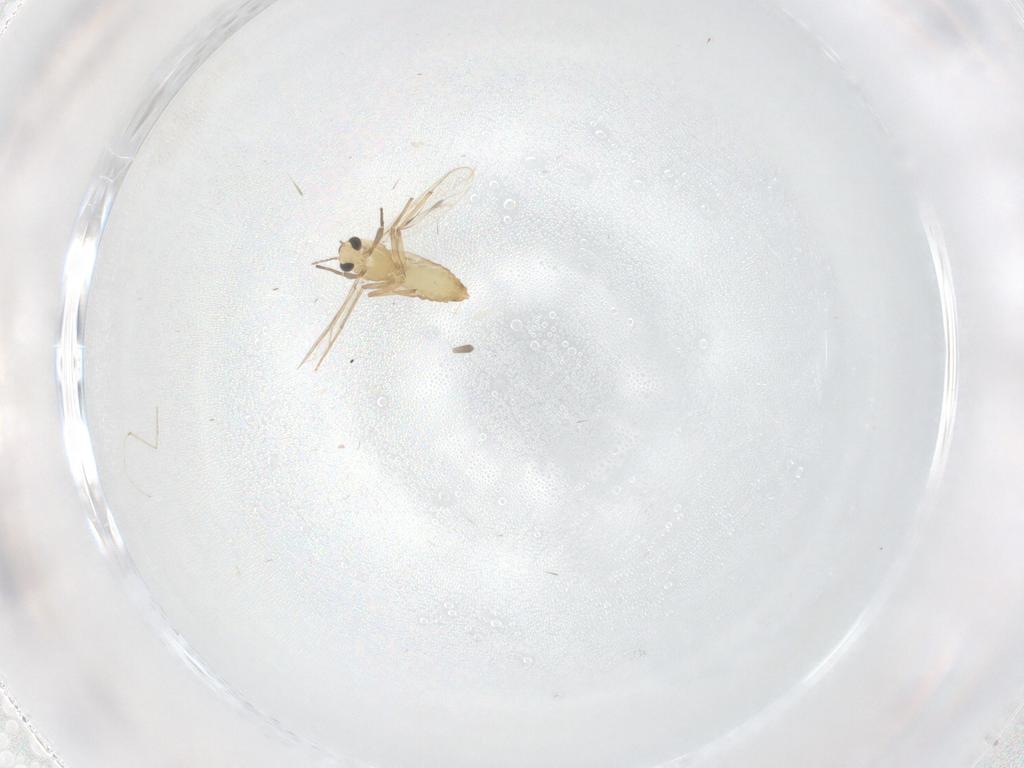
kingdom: Animalia
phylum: Arthropoda
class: Insecta
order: Diptera
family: Chironomidae
